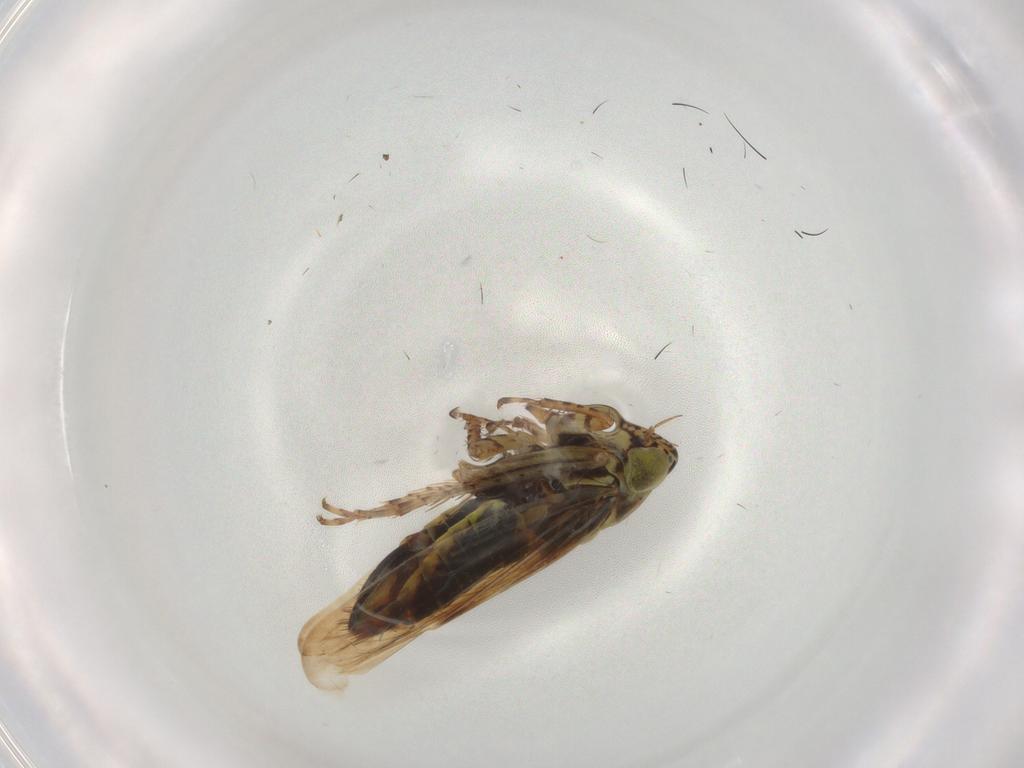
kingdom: Animalia
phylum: Arthropoda
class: Insecta
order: Hemiptera
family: Cicadellidae
